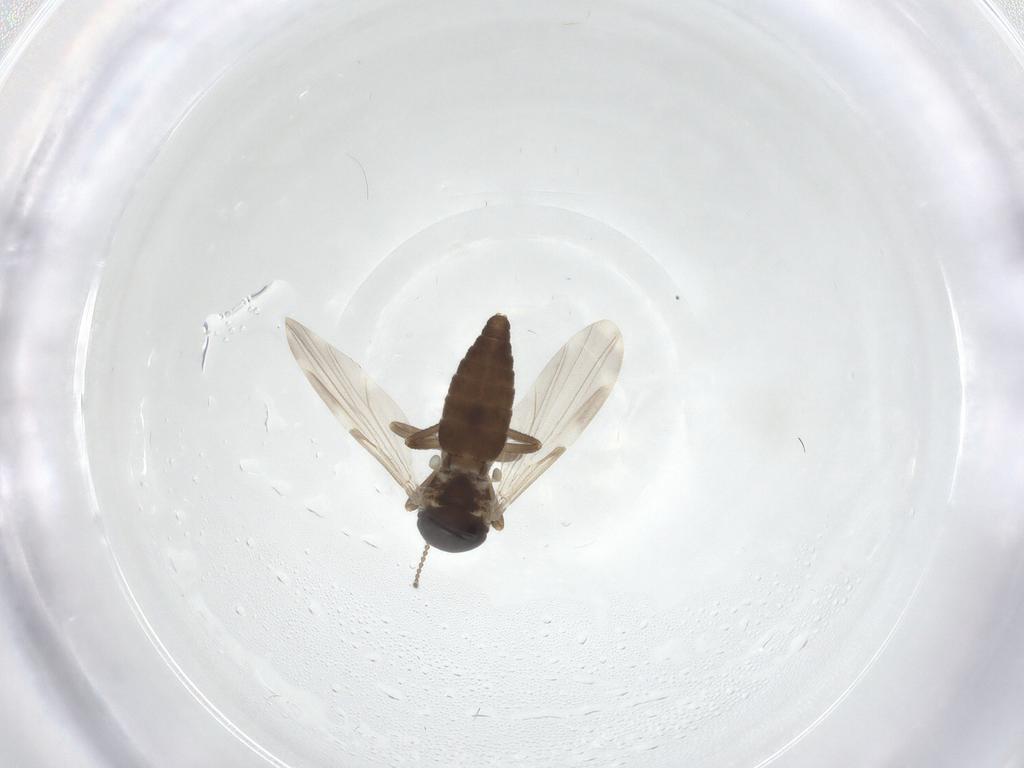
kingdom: Animalia
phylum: Arthropoda
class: Insecta
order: Diptera
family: Ceratopogonidae
